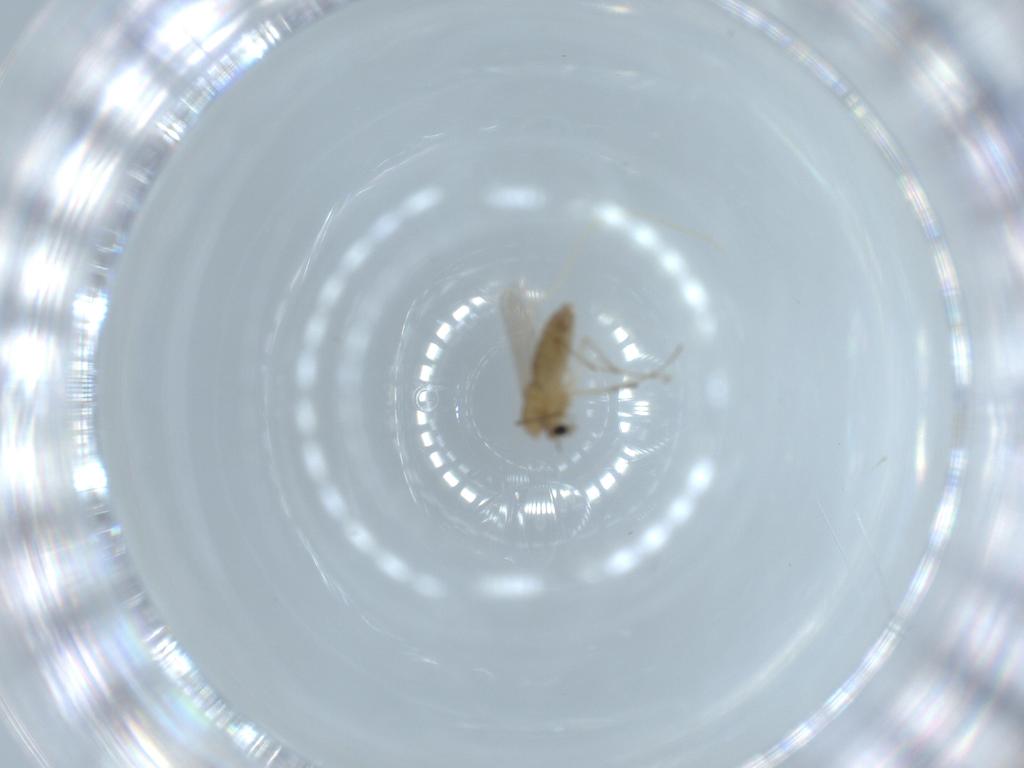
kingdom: Animalia
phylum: Arthropoda
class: Insecta
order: Diptera
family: Chironomidae
